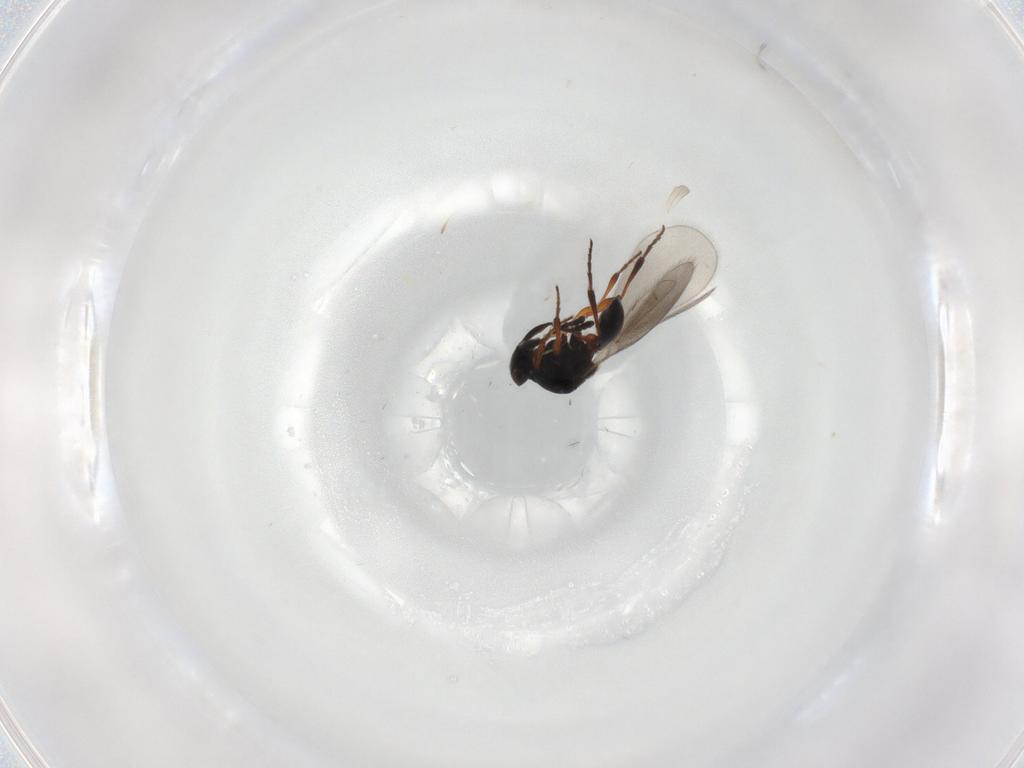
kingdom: Animalia
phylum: Arthropoda
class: Insecta
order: Hymenoptera
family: Platygastridae
